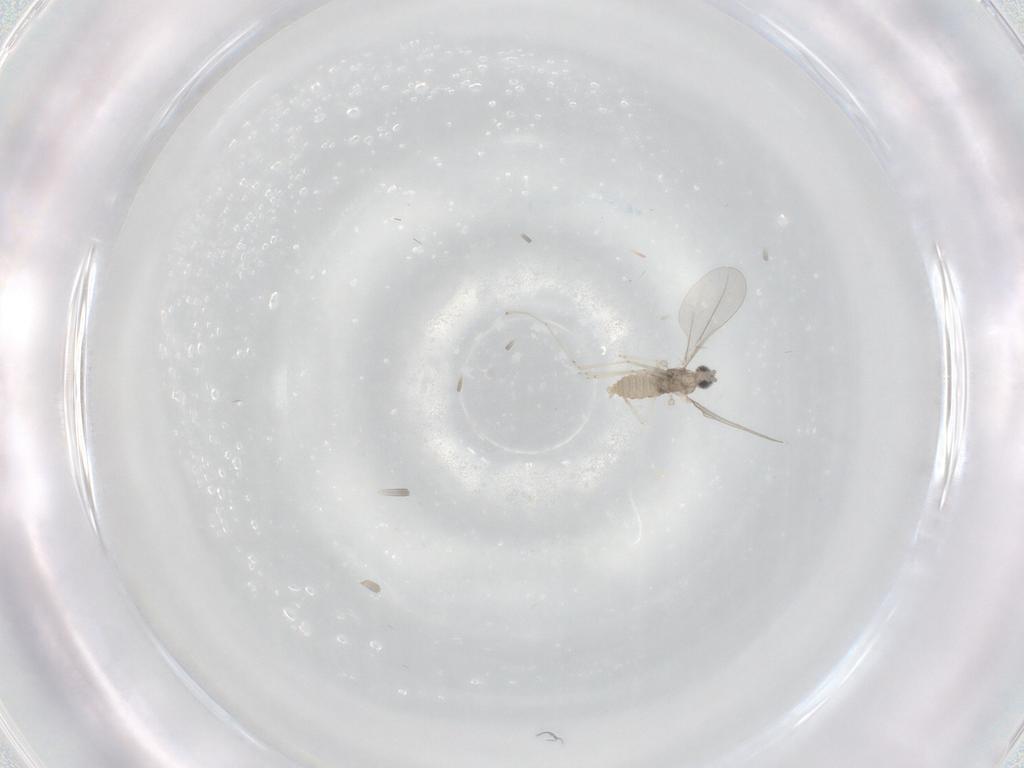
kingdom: Animalia
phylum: Arthropoda
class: Insecta
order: Diptera
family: Cecidomyiidae
